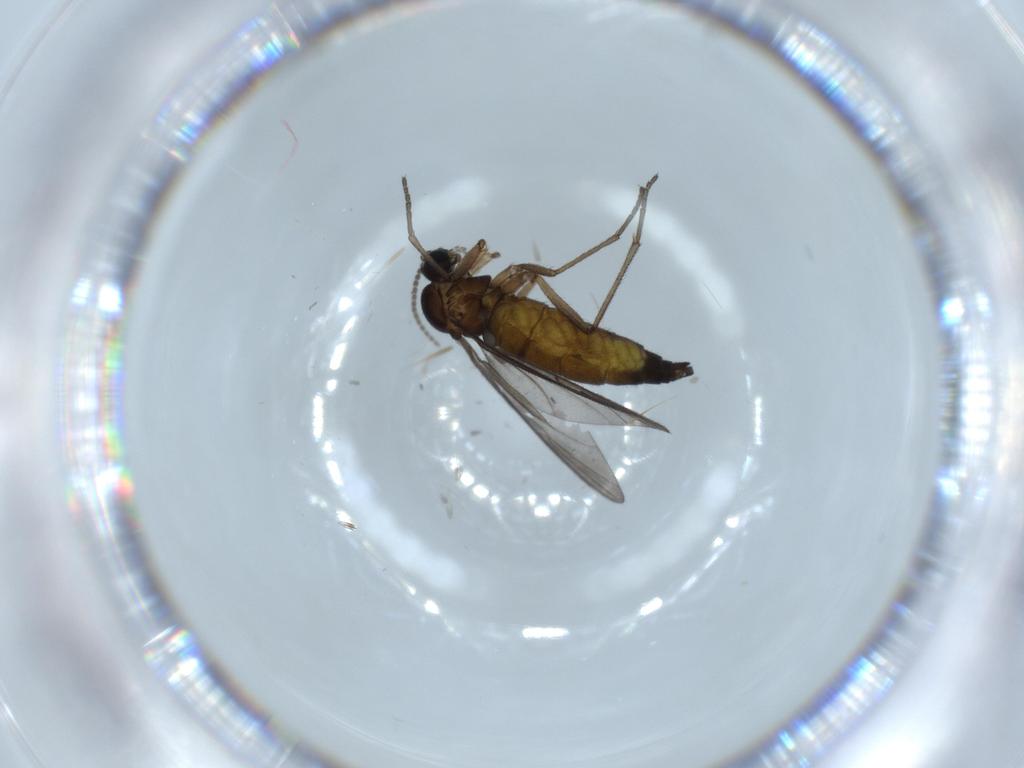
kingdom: Animalia
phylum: Arthropoda
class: Insecta
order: Diptera
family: Sciaridae
